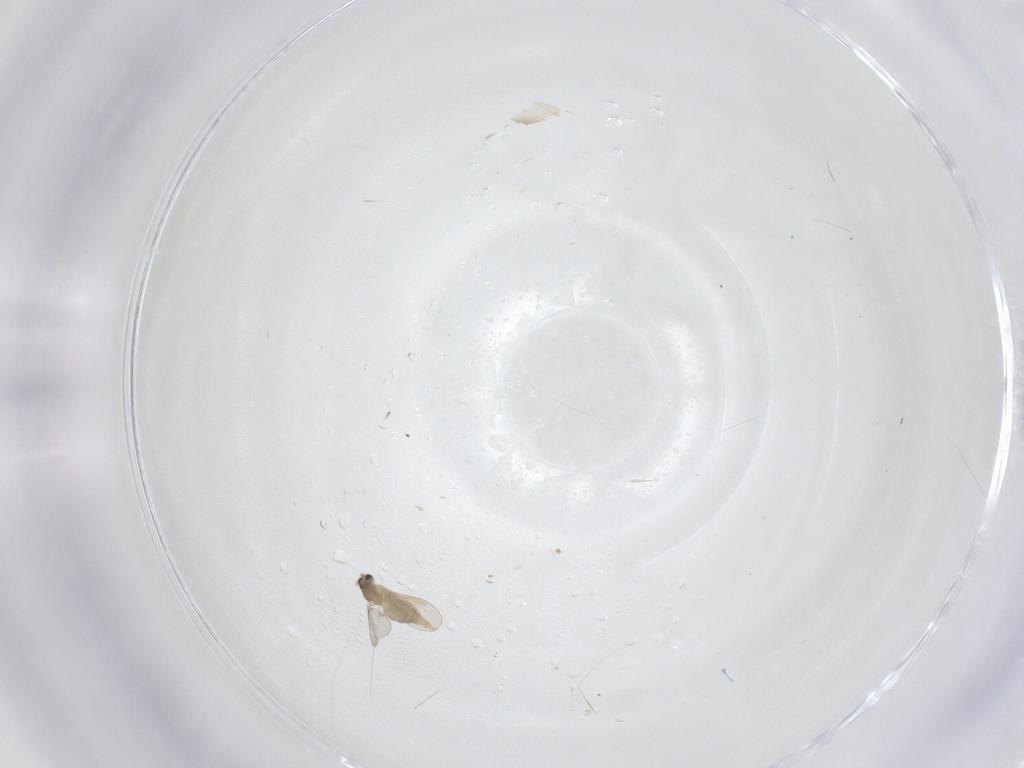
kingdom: Animalia
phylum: Arthropoda
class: Insecta
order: Diptera
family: Cecidomyiidae
